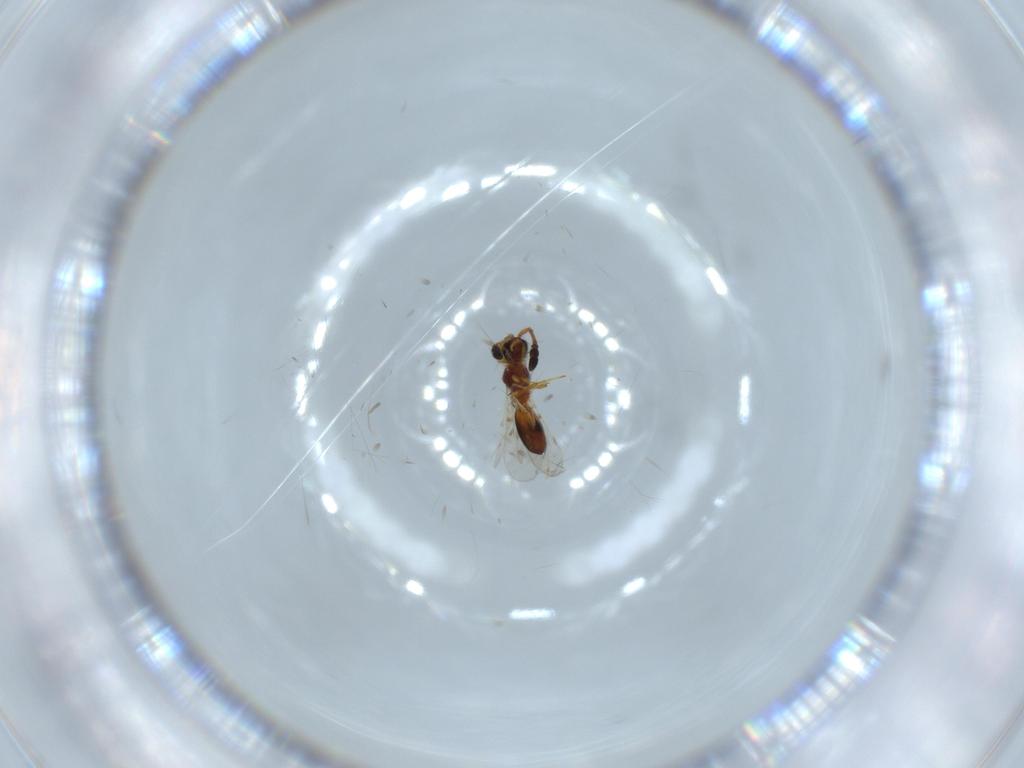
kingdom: Animalia
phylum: Arthropoda
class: Insecta
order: Hymenoptera
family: Diapriidae
